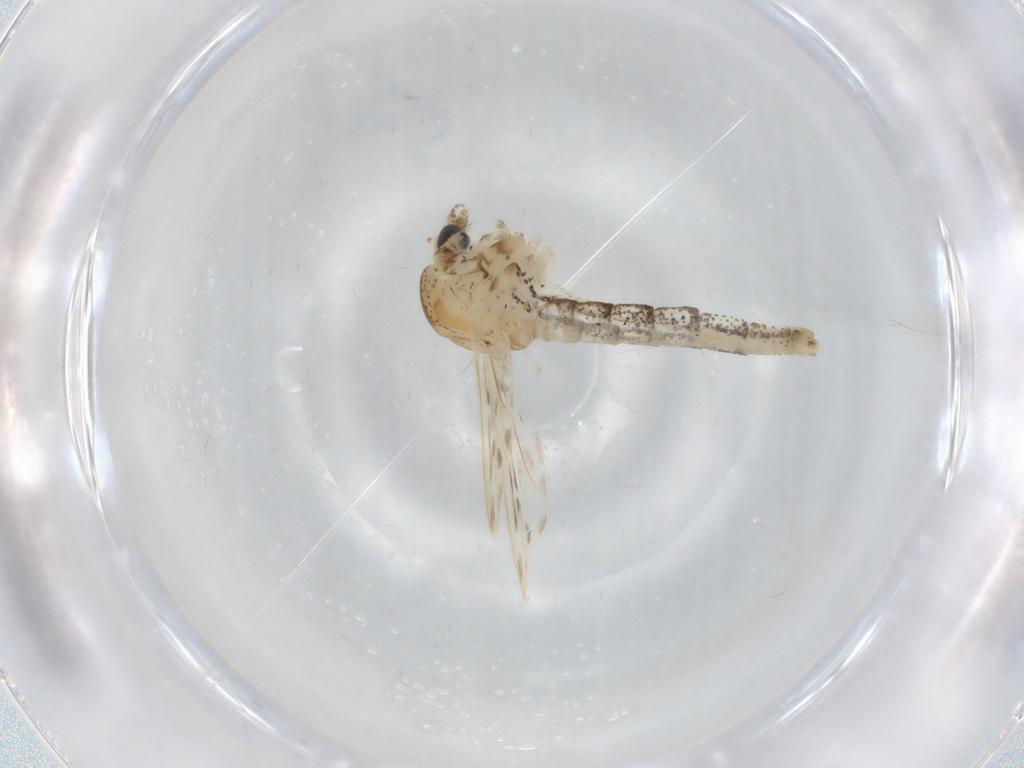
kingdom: Animalia
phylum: Arthropoda
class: Insecta
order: Diptera
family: Chaoboridae
